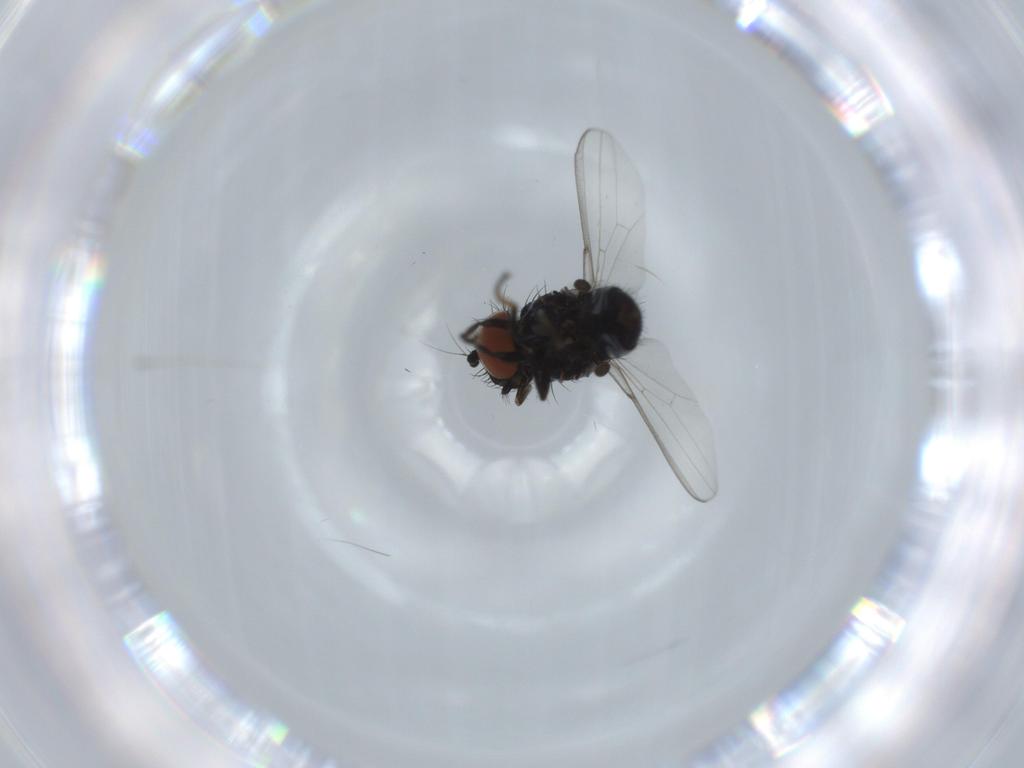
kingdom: Animalia
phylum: Arthropoda
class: Insecta
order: Diptera
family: Milichiidae
